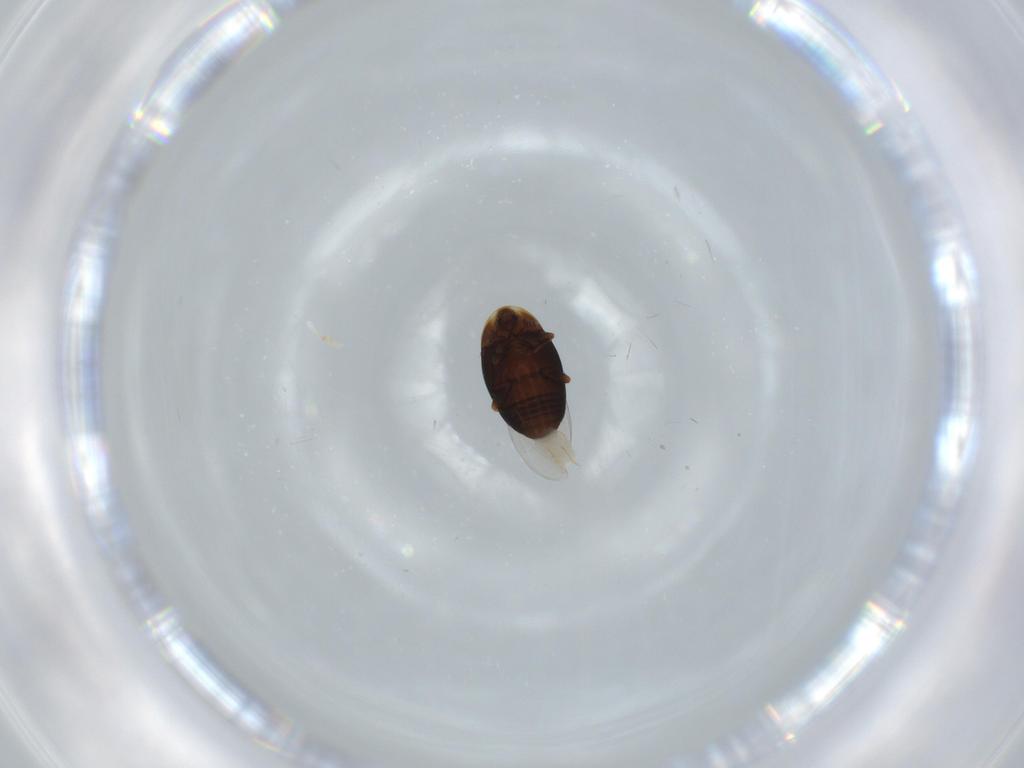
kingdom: Animalia
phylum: Arthropoda
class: Insecta
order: Coleoptera
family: Corylophidae
